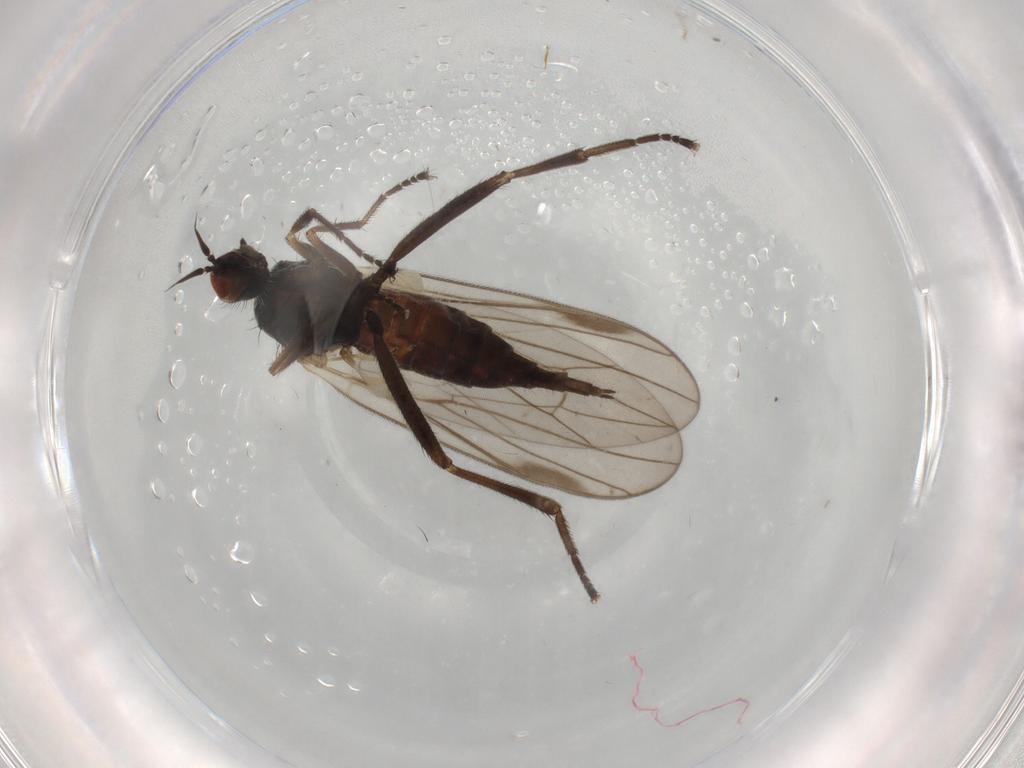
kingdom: Animalia
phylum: Arthropoda
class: Insecta
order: Diptera
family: Hybotidae
